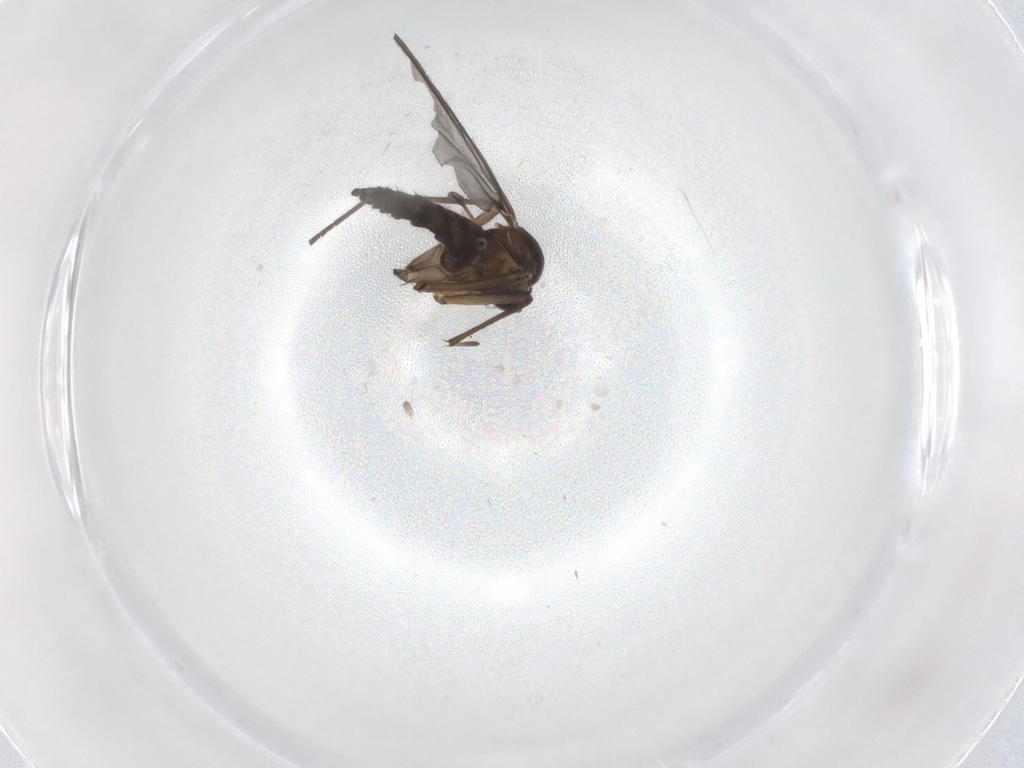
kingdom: Animalia
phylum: Arthropoda
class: Insecta
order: Diptera
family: Sciaridae
